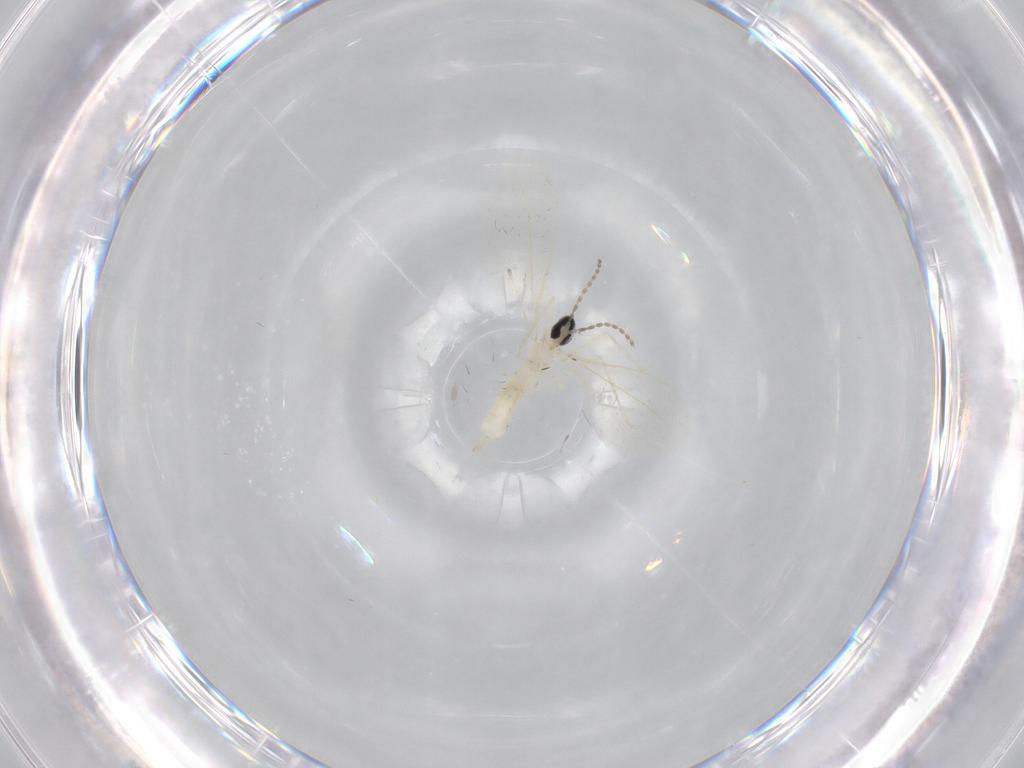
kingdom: Animalia
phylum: Arthropoda
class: Insecta
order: Diptera
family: Cecidomyiidae
